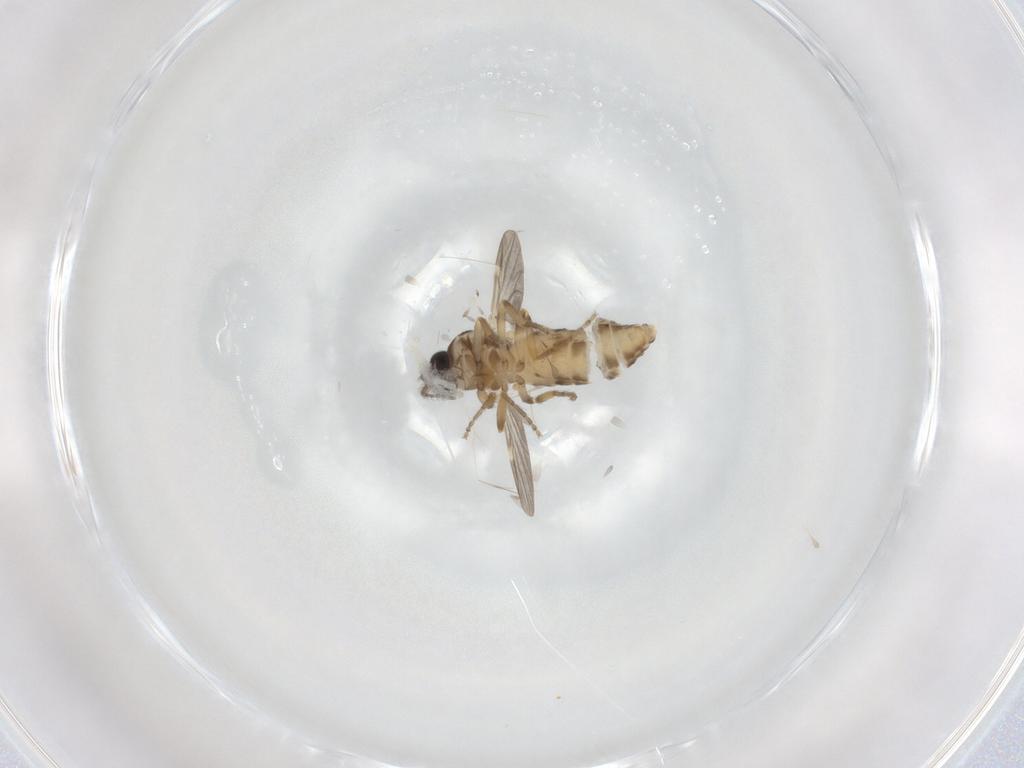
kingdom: Animalia
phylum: Arthropoda
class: Insecta
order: Diptera
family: Ceratopogonidae
